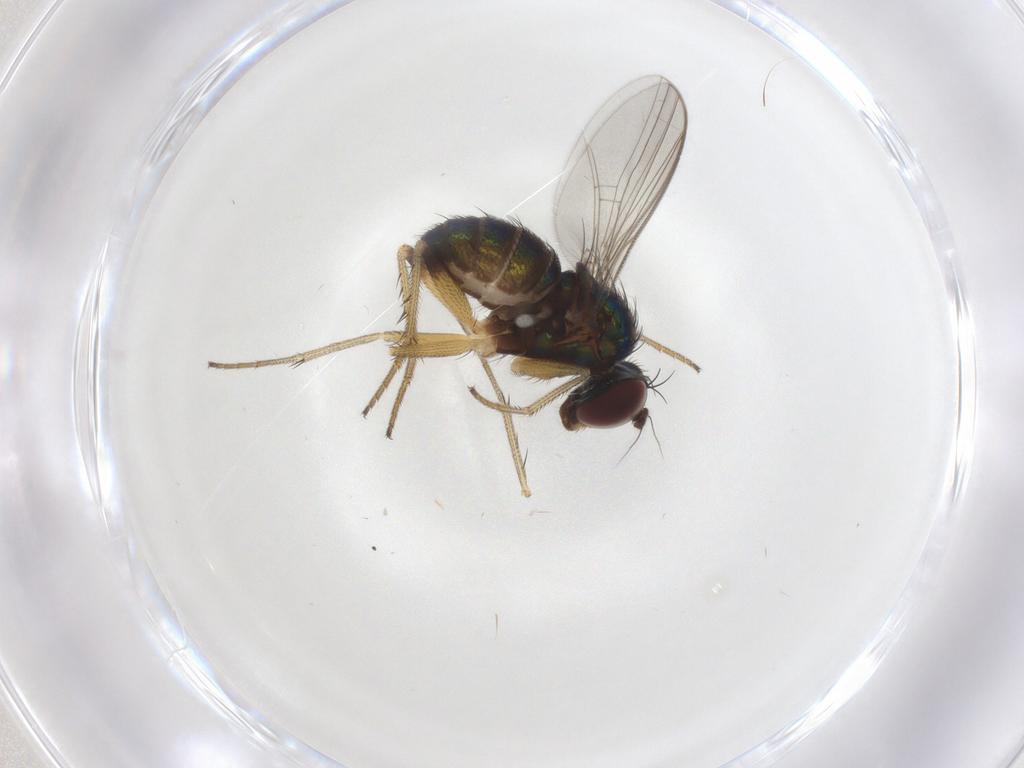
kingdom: Animalia
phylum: Arthropoda
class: Insecta
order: Diptera
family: Dolichopodidae
